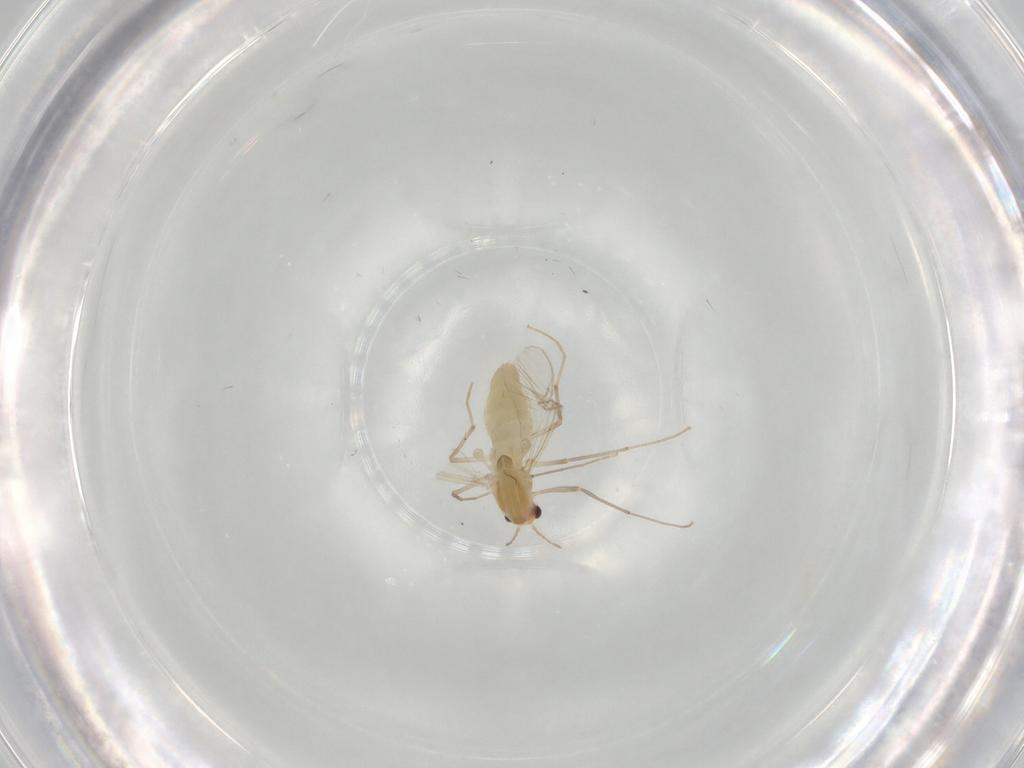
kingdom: Animalia
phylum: Arthropoda
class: Insecta
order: Diptera
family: Chironomidae
